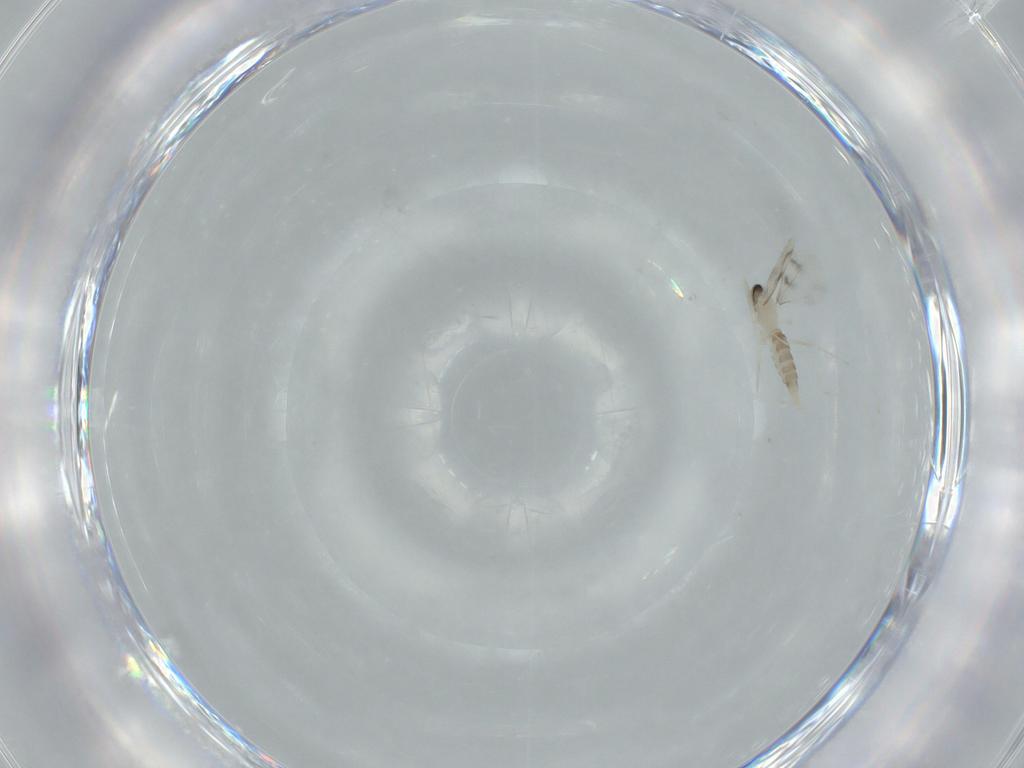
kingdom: Animalia
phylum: Arthropoda
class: Insecta
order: Diptera
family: Cecidomyiidae
